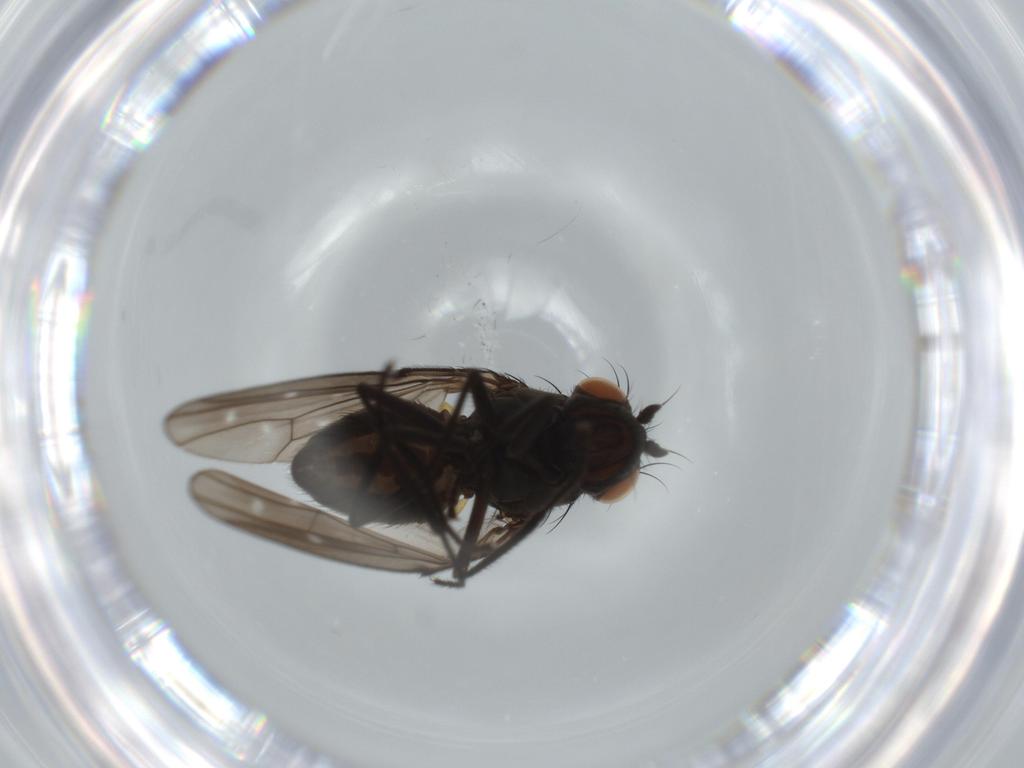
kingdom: Animalia
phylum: Arthropoda
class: Insecta
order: Diptera
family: Ephydridae
